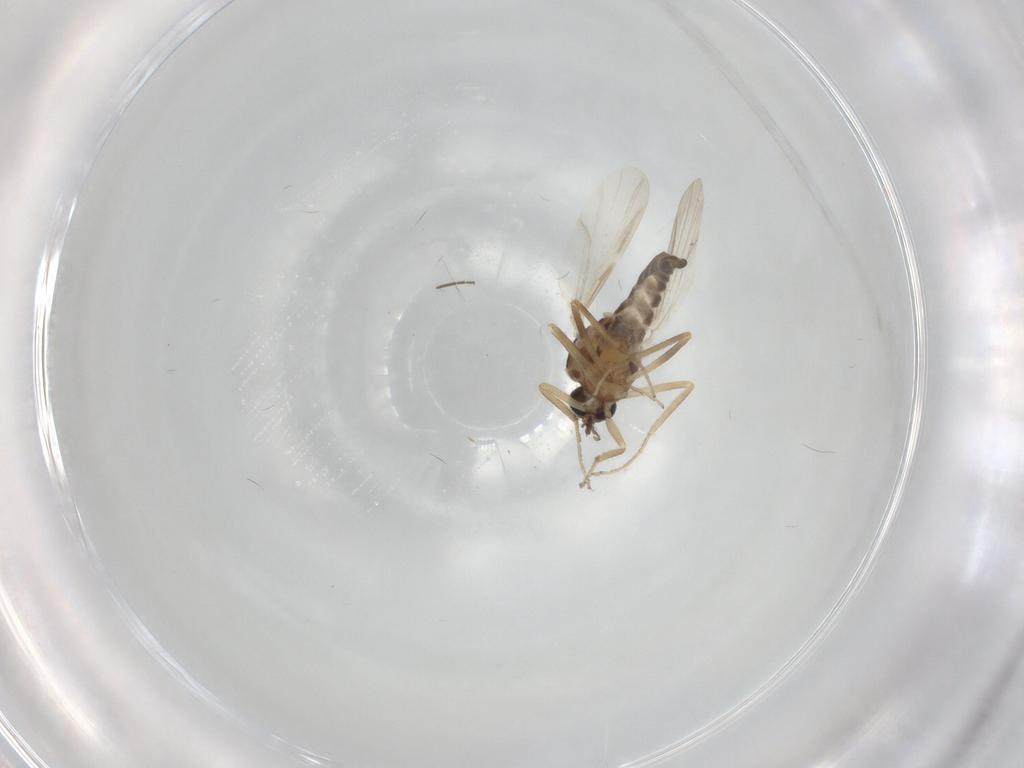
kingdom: Animalia
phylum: Arthropoda
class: Insecta
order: Diptera
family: Ceratopogonidae
